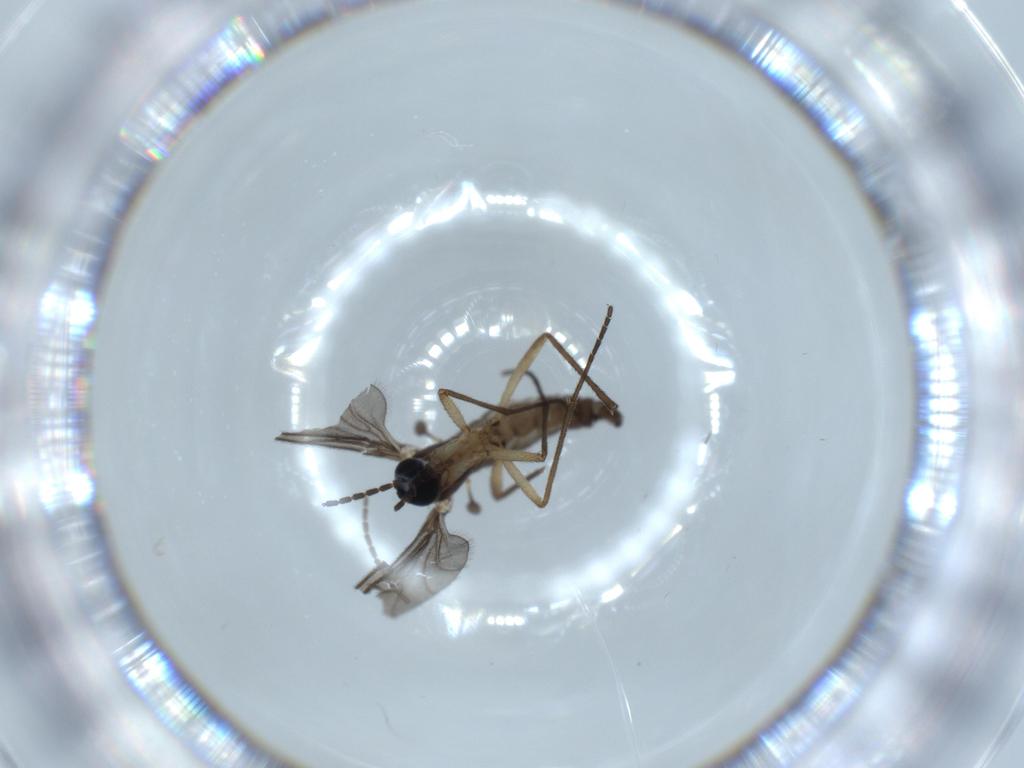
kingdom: Animalia
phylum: Arthropoda
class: Insecta
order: Diptera
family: Sciaridae
